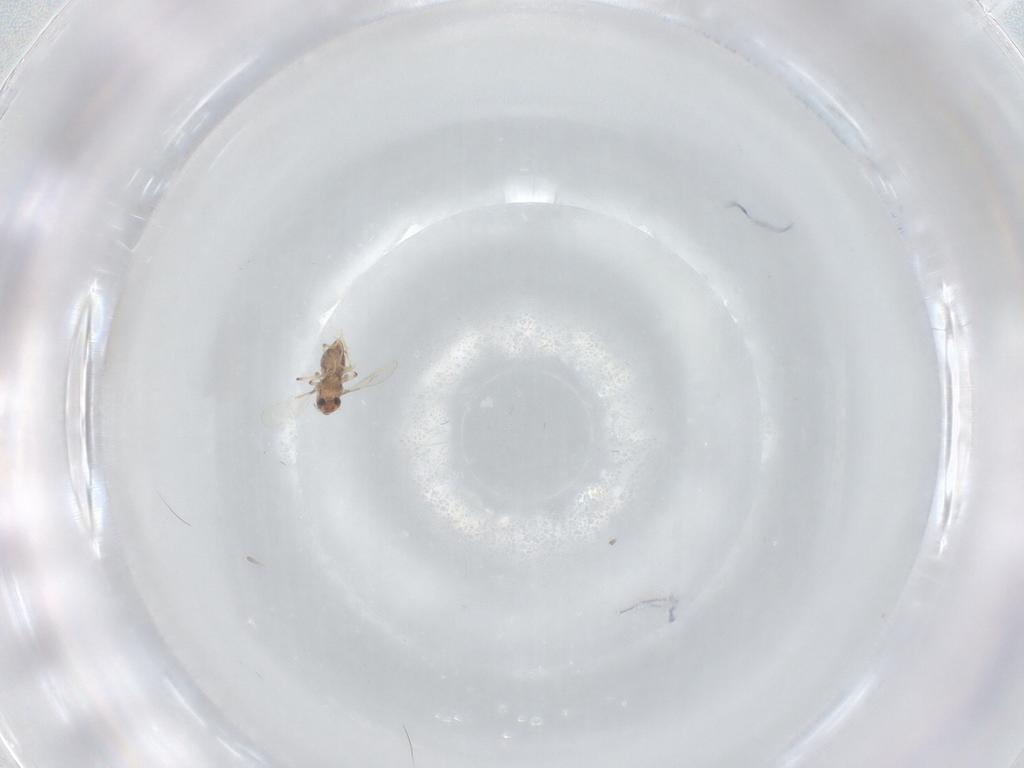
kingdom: Animalia
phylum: Arthropoda
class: Insecta
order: Diptera
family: Chironomidae
